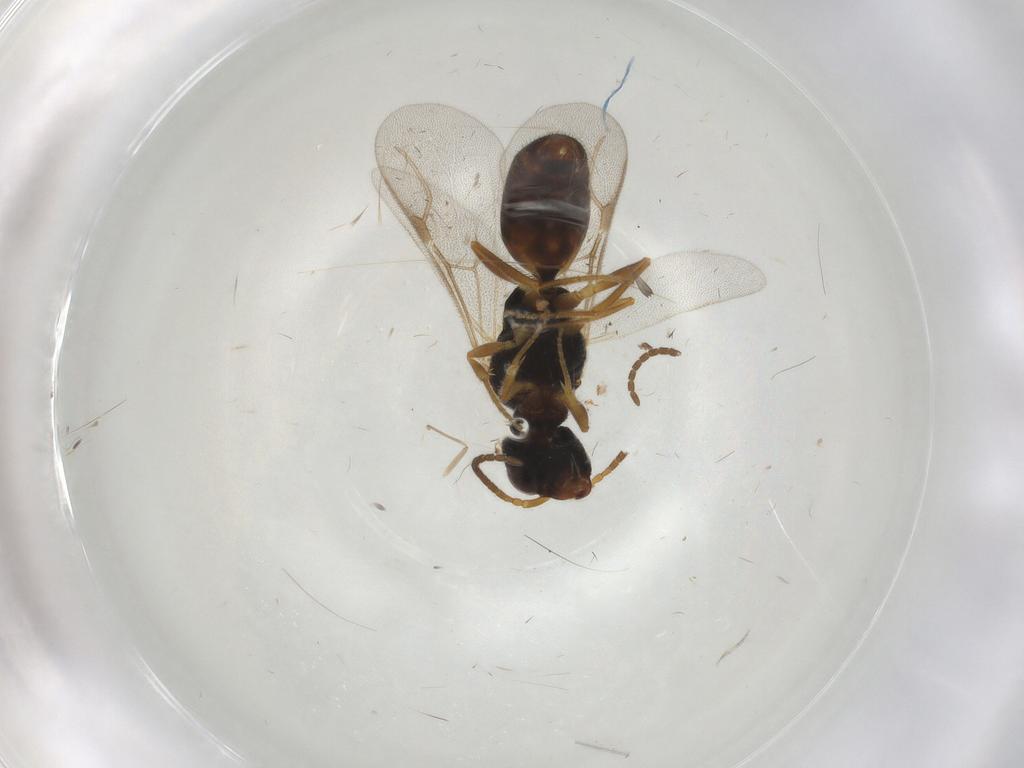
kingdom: Animalia
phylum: Arthropoda
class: Insecta
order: Hymenoptera
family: Bethylidae
